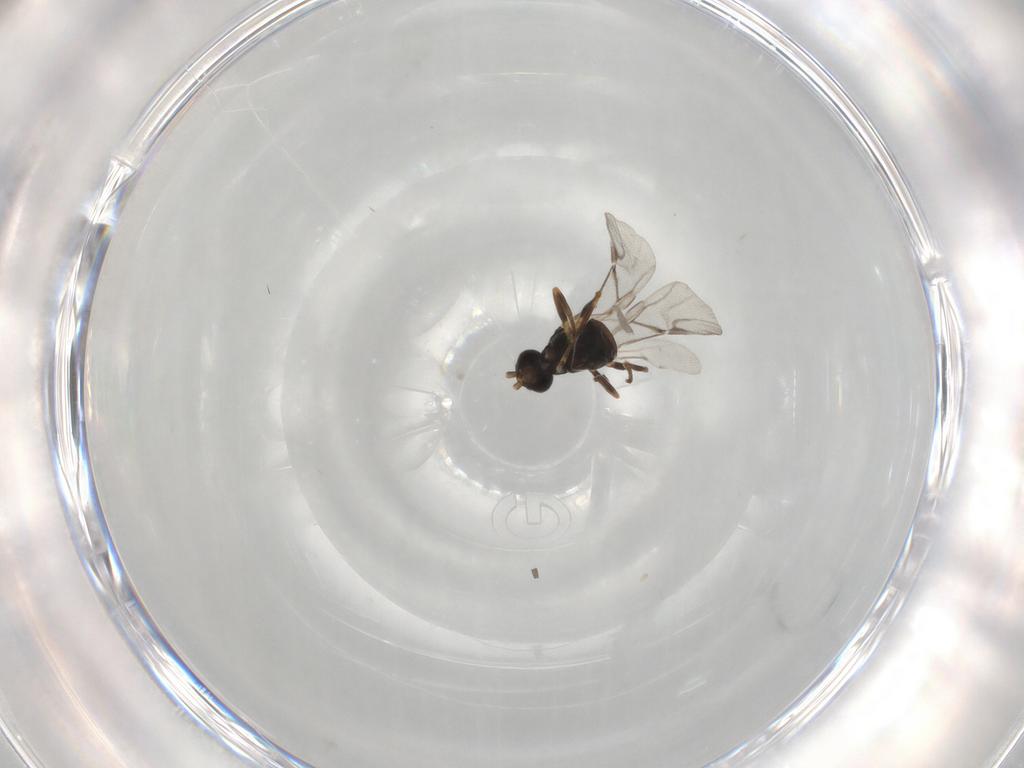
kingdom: Animalia
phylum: Arthropoda
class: Insecta
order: Hymenoptera
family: Braconidae
